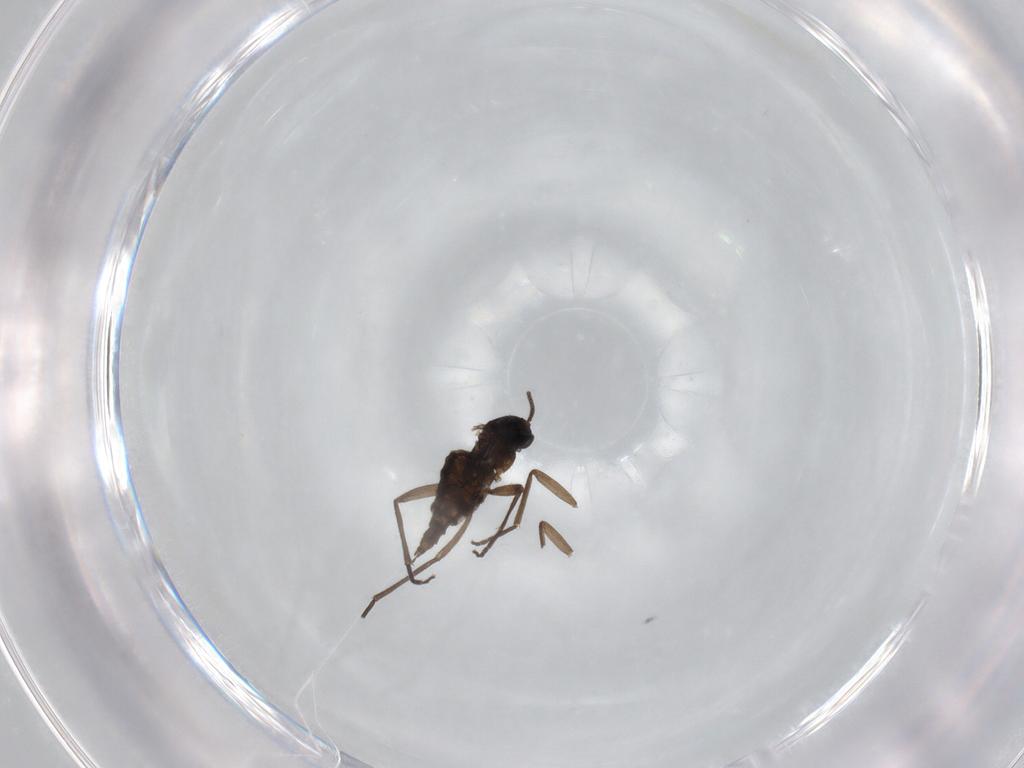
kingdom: Animalia
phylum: Arthropoda
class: Insecta
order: Diptera
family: Sciaridae
